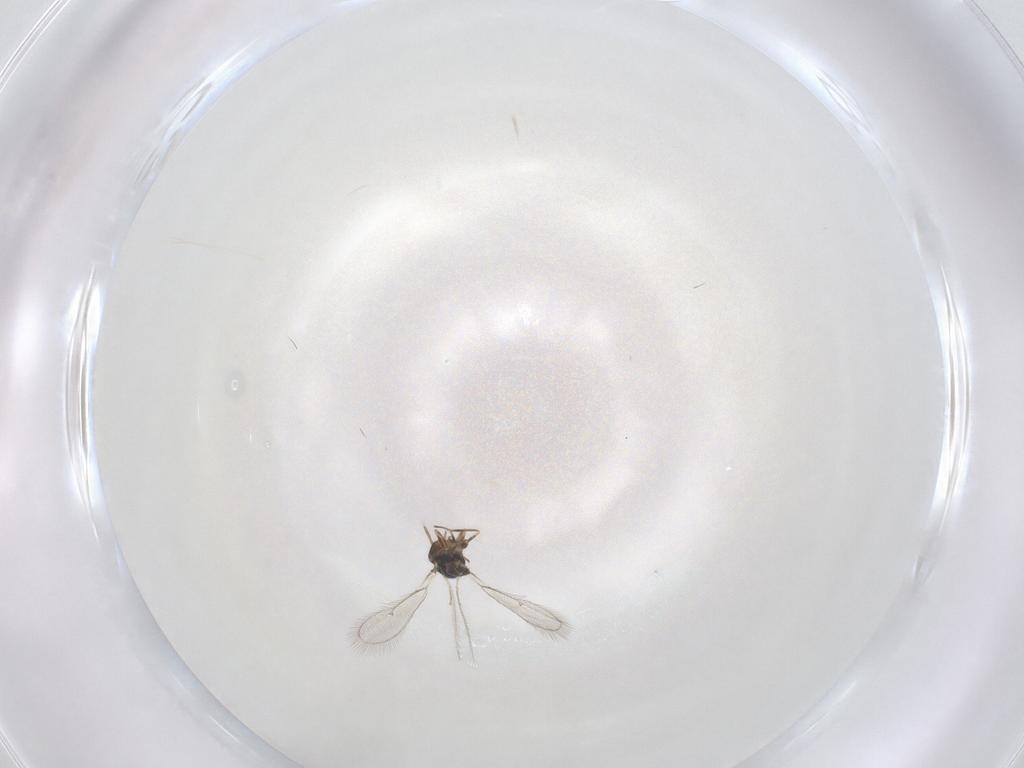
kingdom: Animalia
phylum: Arthropoda
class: Insecta
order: Hymenoptera
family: Eulophidae
